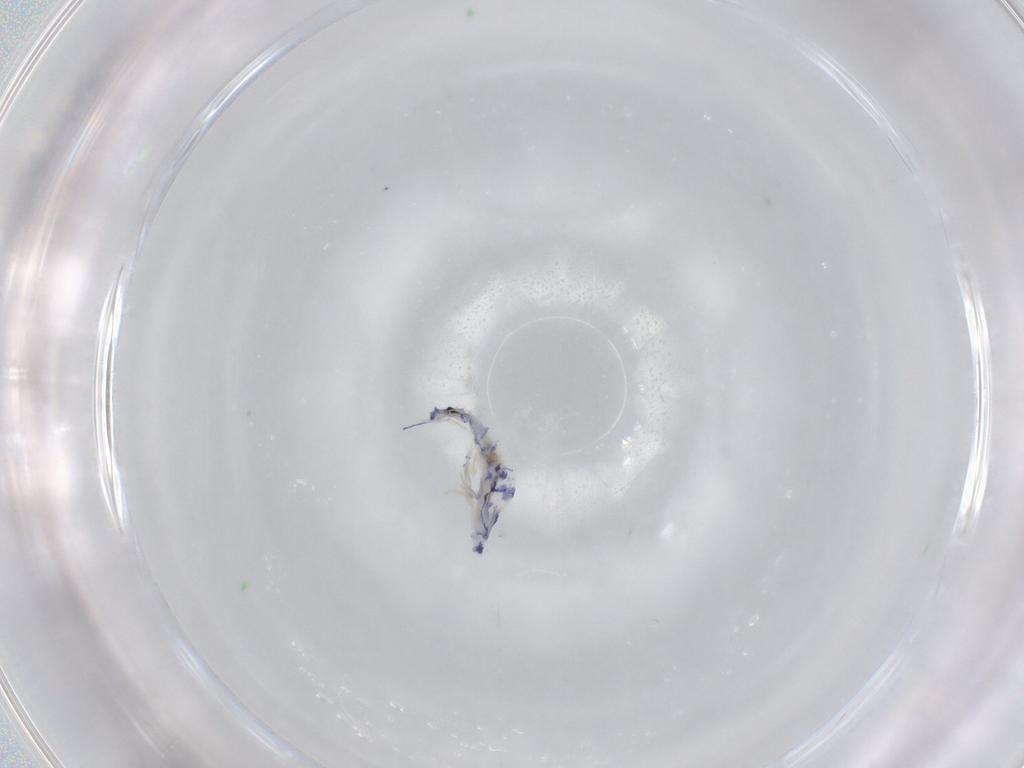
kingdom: Animalia
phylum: Arthropoda
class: Collembola
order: Entomobryomorpha
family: Entomobryidae
